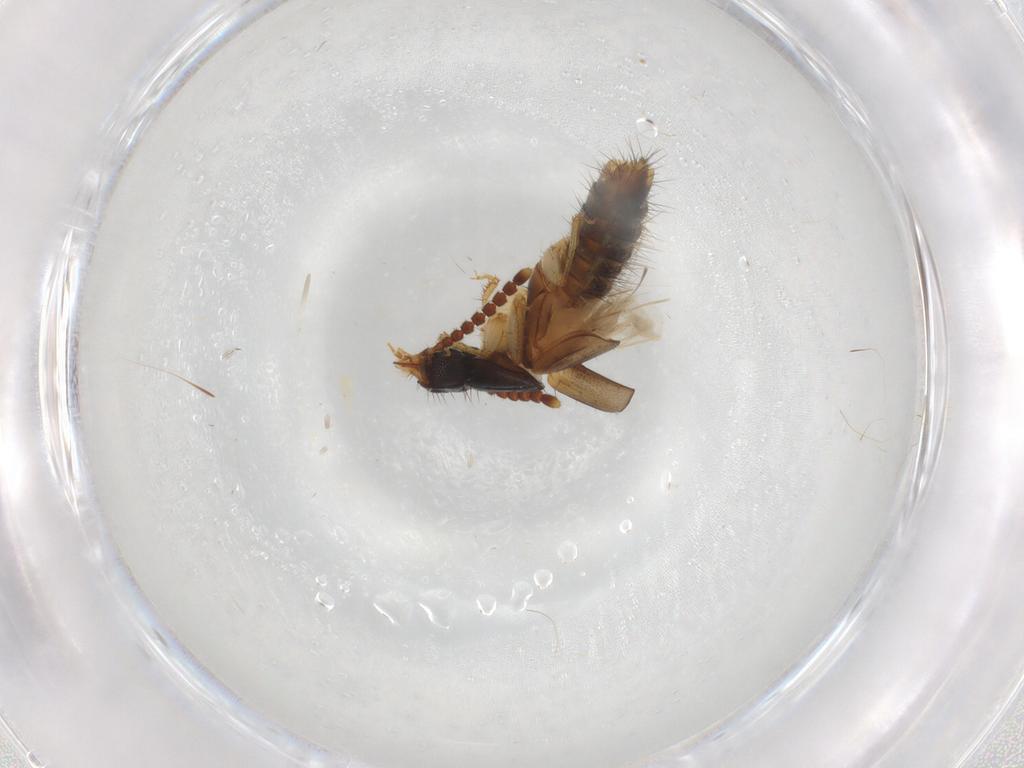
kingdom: Animalia
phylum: Arthropoda
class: Insecta
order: Coleoptera
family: Staphylinidae
